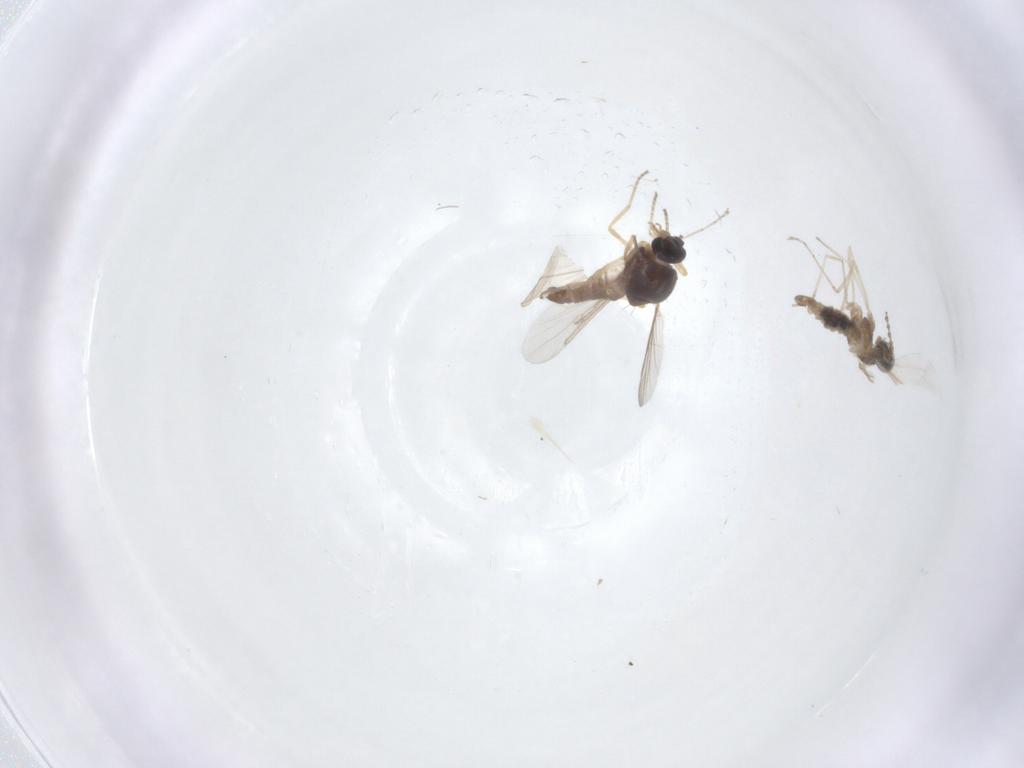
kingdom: Animalia
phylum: Arthropoda
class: Insecta
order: Diptera
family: Cecidomyiidae
